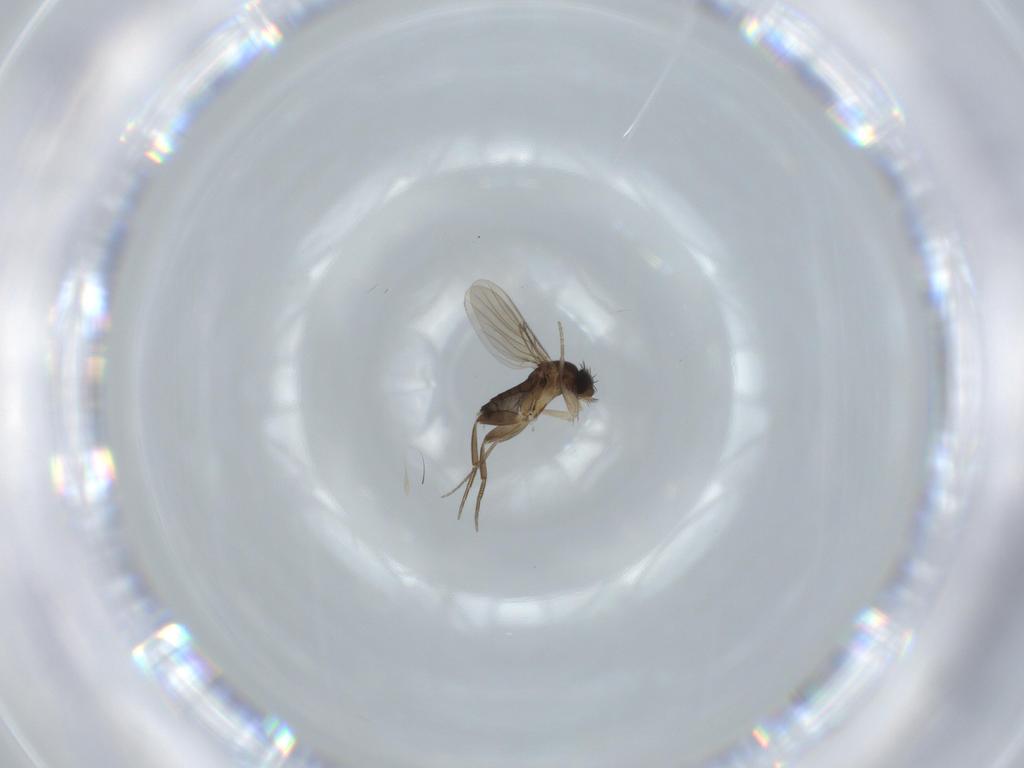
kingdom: Animalia
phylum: Arthropoda
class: Insecta
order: Diptera
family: Phoridae
